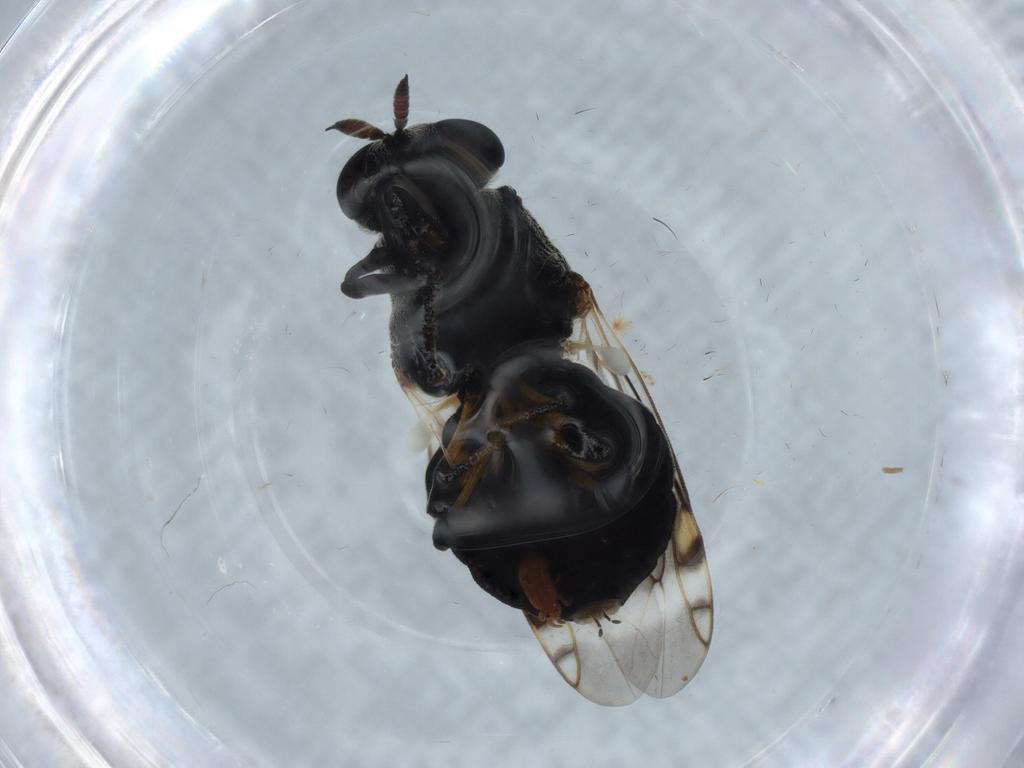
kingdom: Animalia
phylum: Arthropoda
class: Insecta
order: Diptera
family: Stratiomyidae
